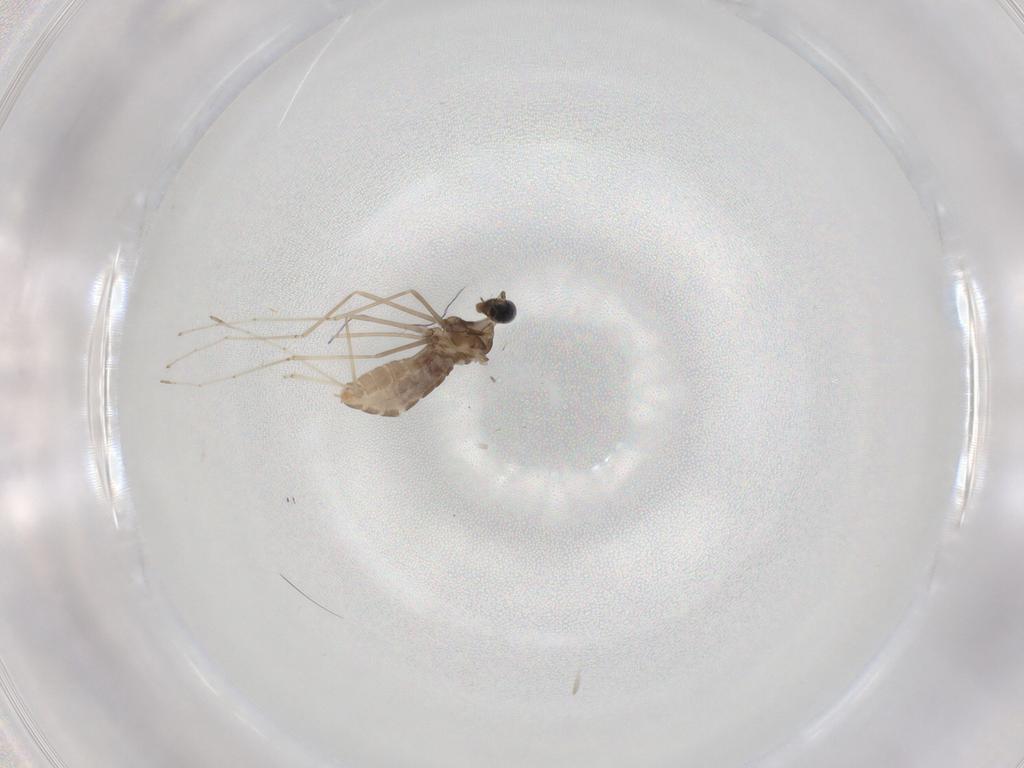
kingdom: Animalia
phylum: Arthropoda
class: Insecta
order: Diptera
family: Cecidomyiidae
